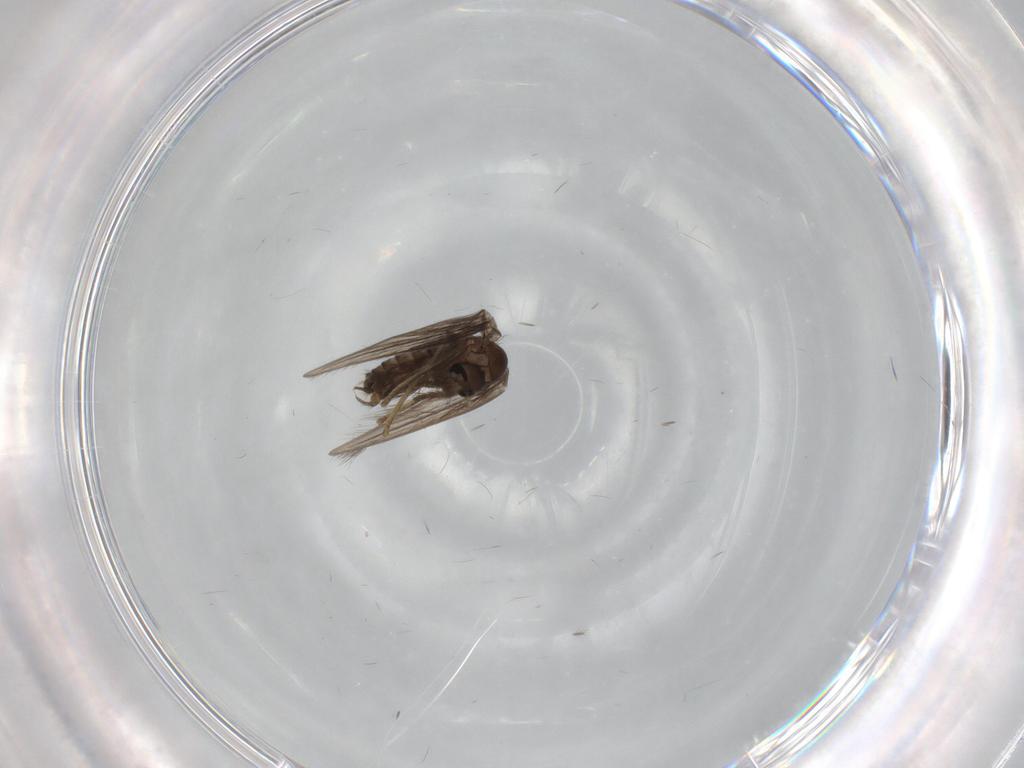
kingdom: Animalia
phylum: Arthropoda
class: Insecta
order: Diptera
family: Psychodidae
